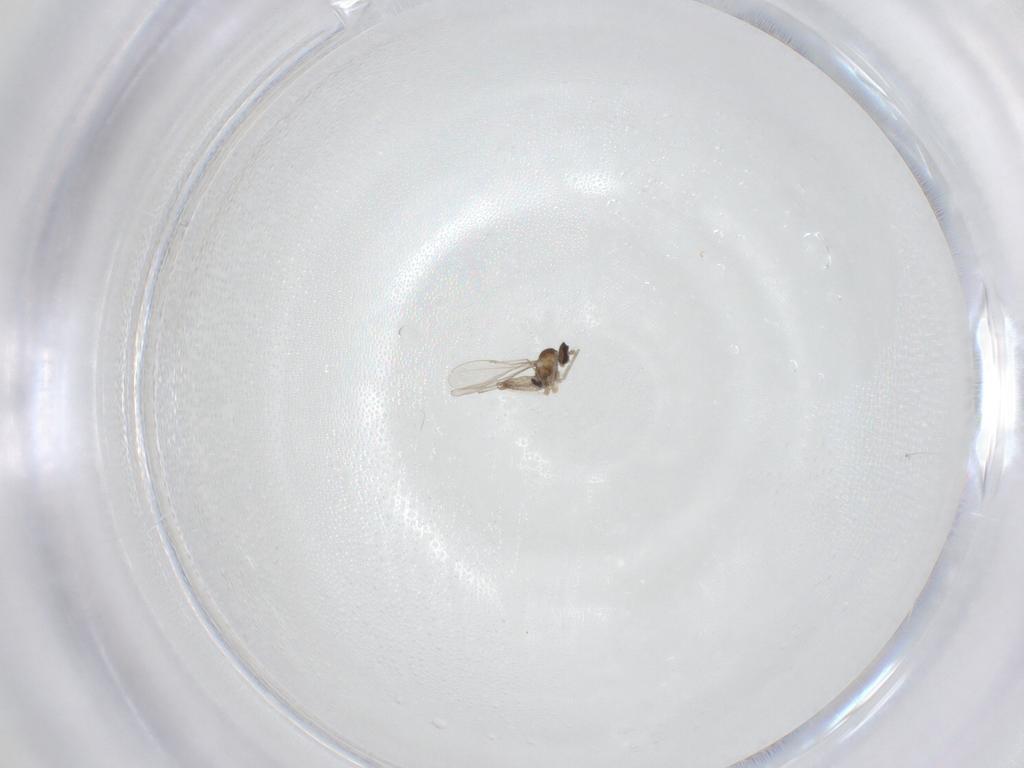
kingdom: Animalia
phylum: Arthropoda
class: Insecta
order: Diptera
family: Cecidomyiidae
